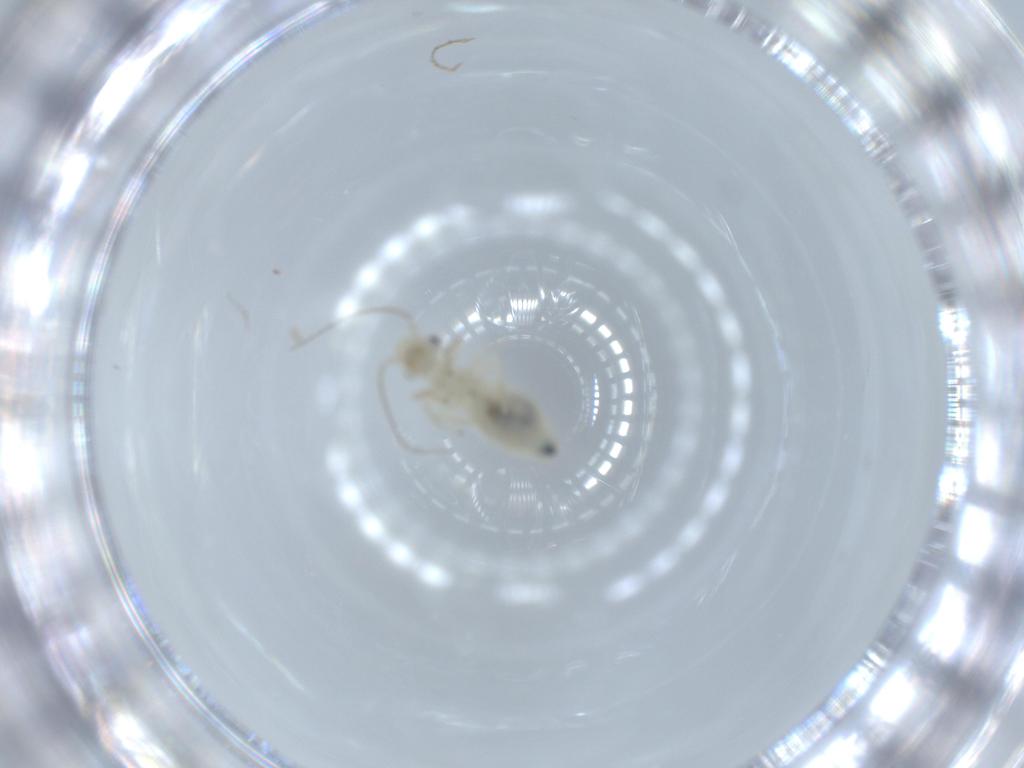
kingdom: Animalia
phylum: Arthropoda
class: Insecta
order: Psocodea
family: Caeciliusidae
